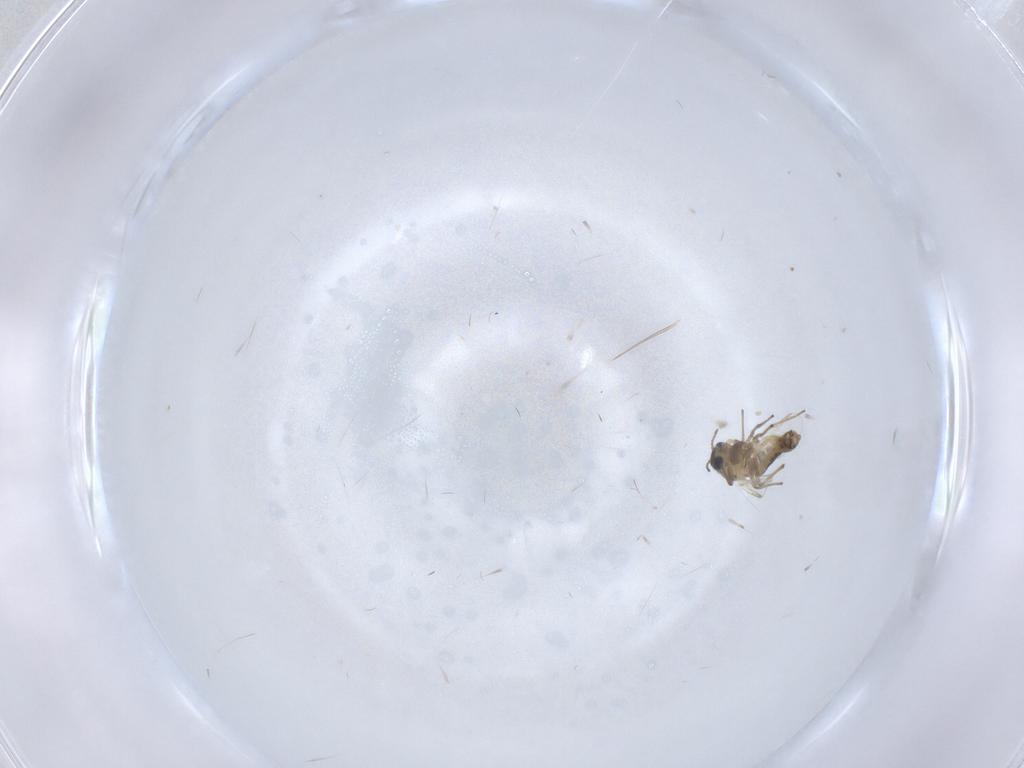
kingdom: Animalia
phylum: Arthropoda
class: Insecta
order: Diptera
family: Chironomidae
